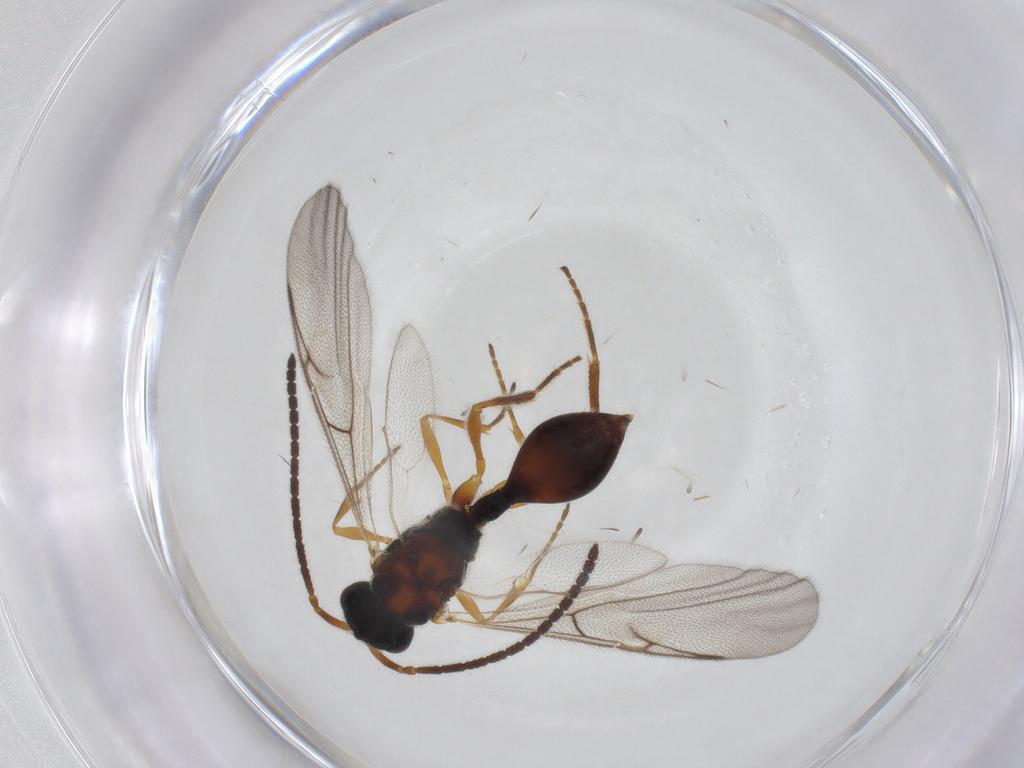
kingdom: Animalia
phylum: Arthropoda
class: Insecta
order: Hymenoptera
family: Diapriidae
